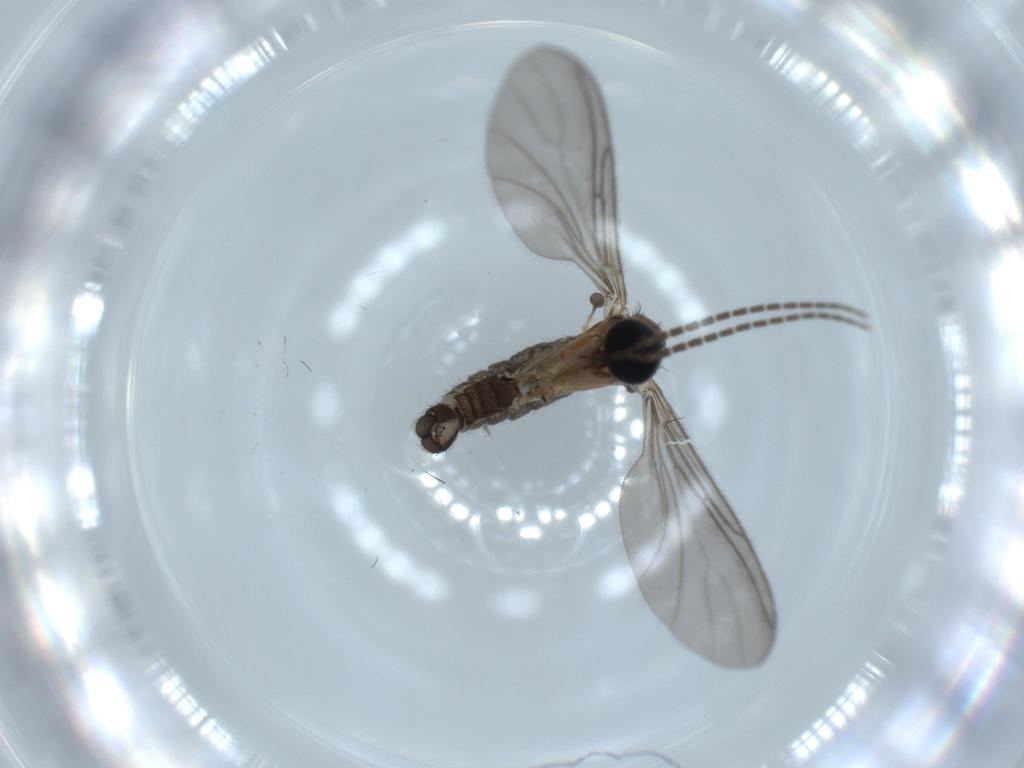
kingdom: Animalia
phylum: Arthropoda
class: Insecta
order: Diptera
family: Sciaridae
